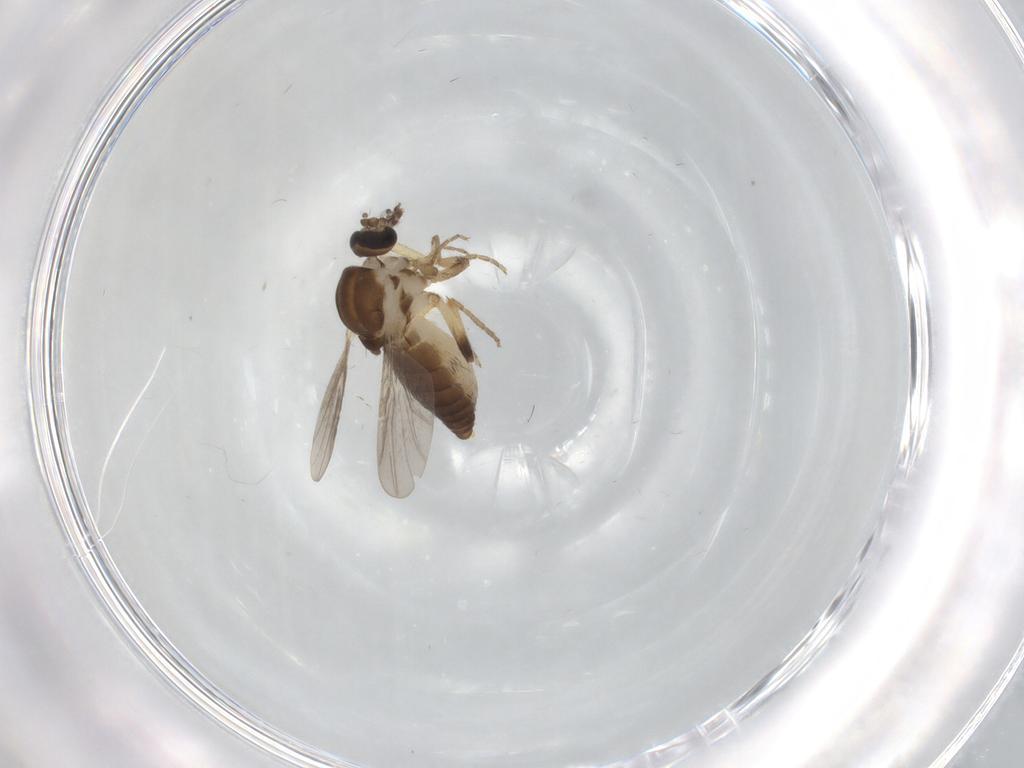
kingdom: Animalia
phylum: Arthropoda
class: Insecta
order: Diptera
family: Ceratopogonidae
